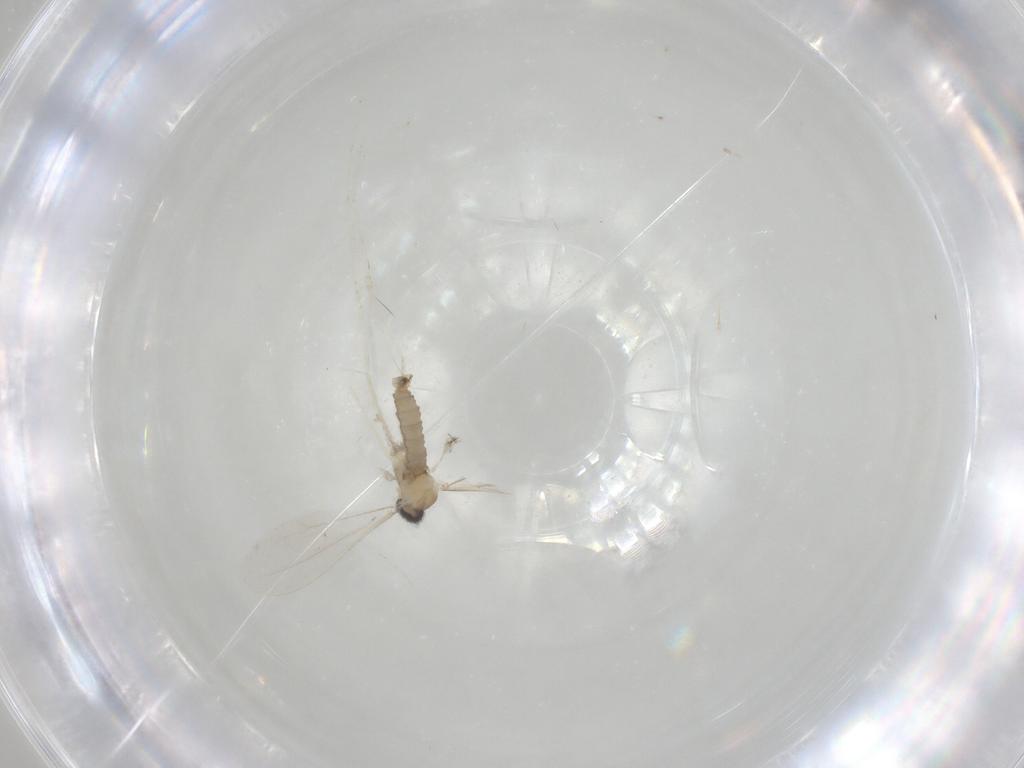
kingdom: Animalia
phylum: Arthropoda
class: Insecta
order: Diptera
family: Cecidomyiidae
